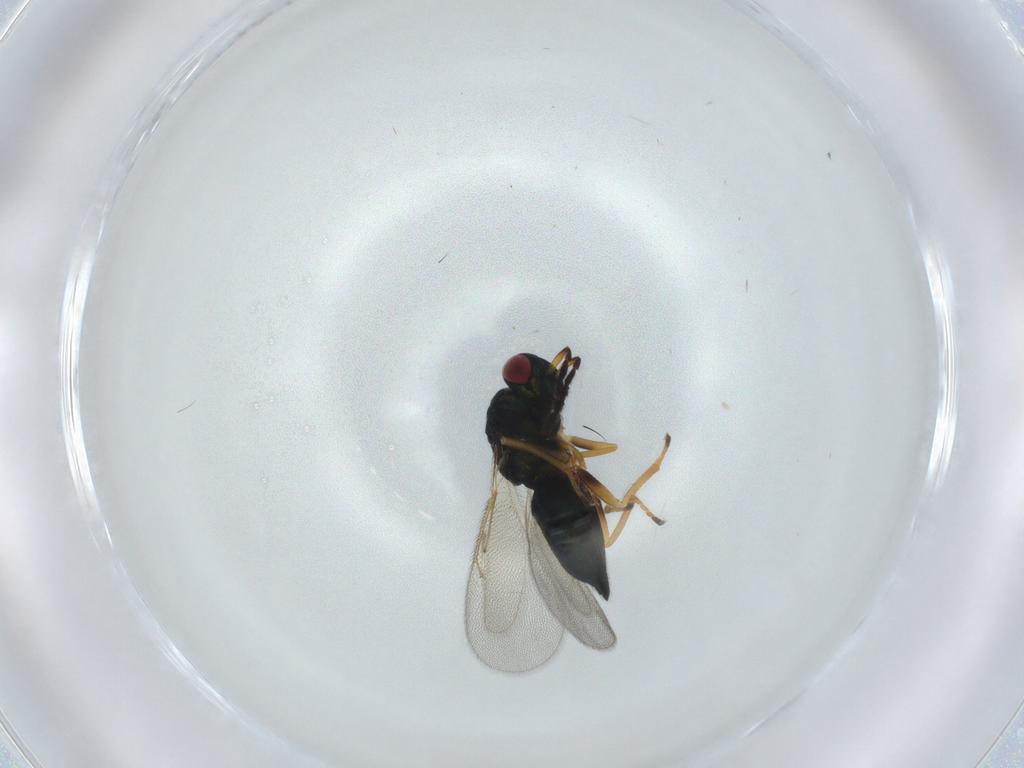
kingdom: Animalia
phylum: Arthropoda
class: Insecta
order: Hymenoptera
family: Eulophidae
